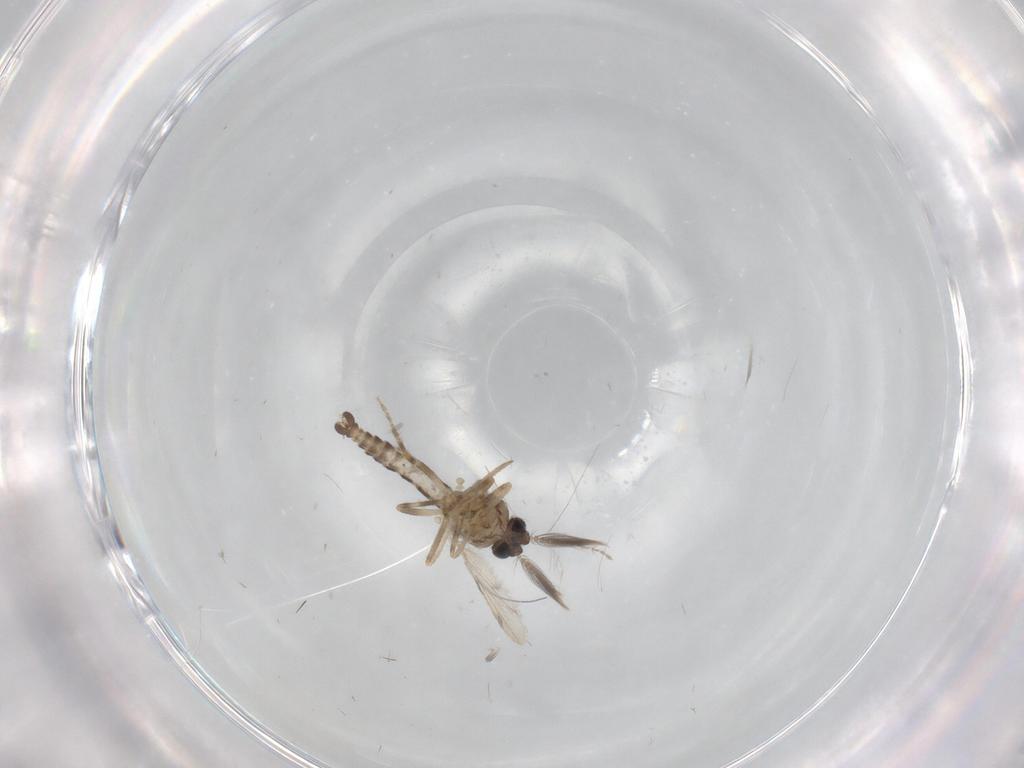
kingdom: Animalia
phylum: Arthropoda
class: Insecta
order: Diptera
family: Ceratopogonidae
